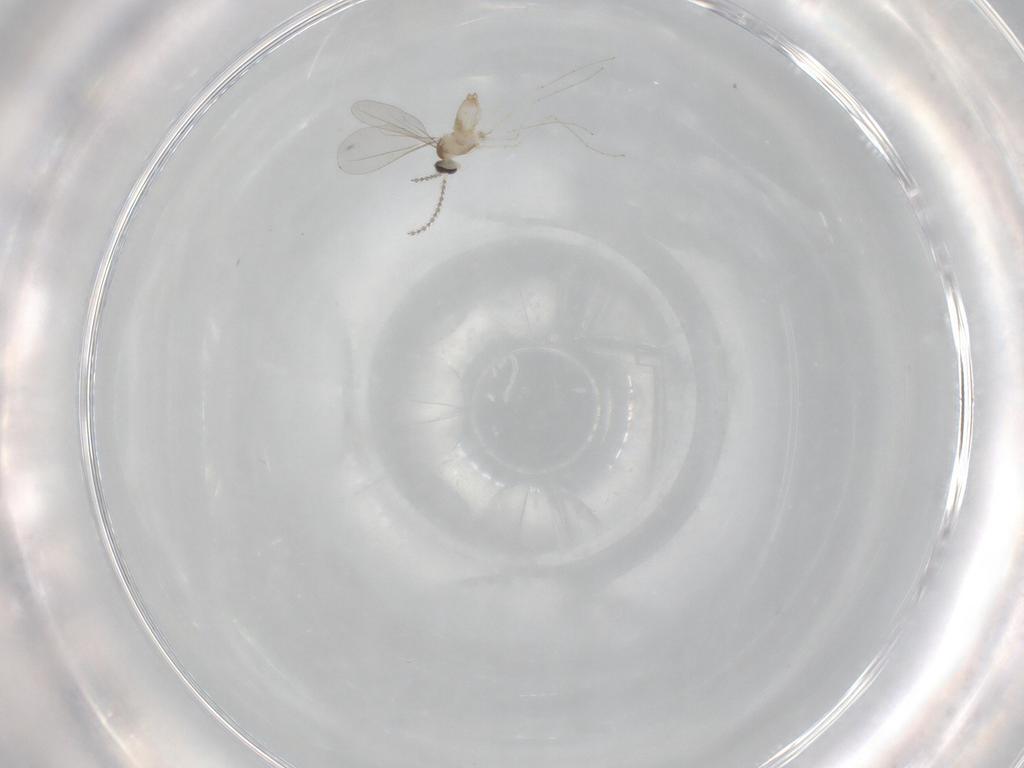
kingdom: Animalia
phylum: Arthropoda
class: Insecta
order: Diptera
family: Cecidomyiidae
